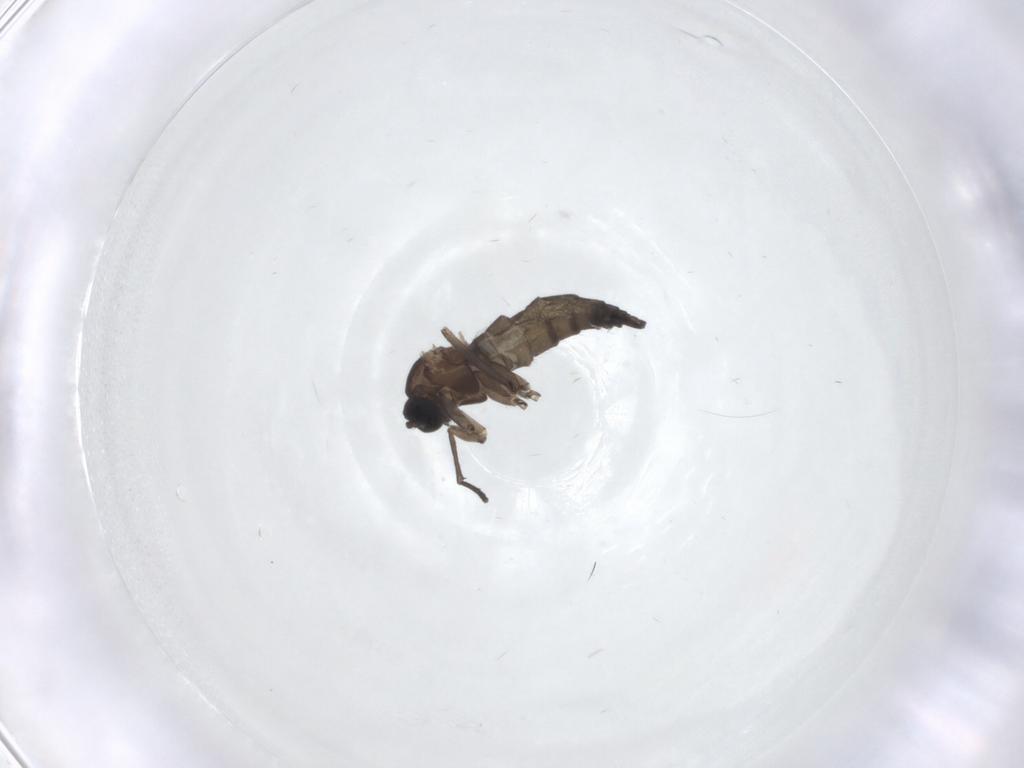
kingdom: Animalia
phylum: Arthropoda
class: Insecta
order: Diptera
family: Sciaridae
